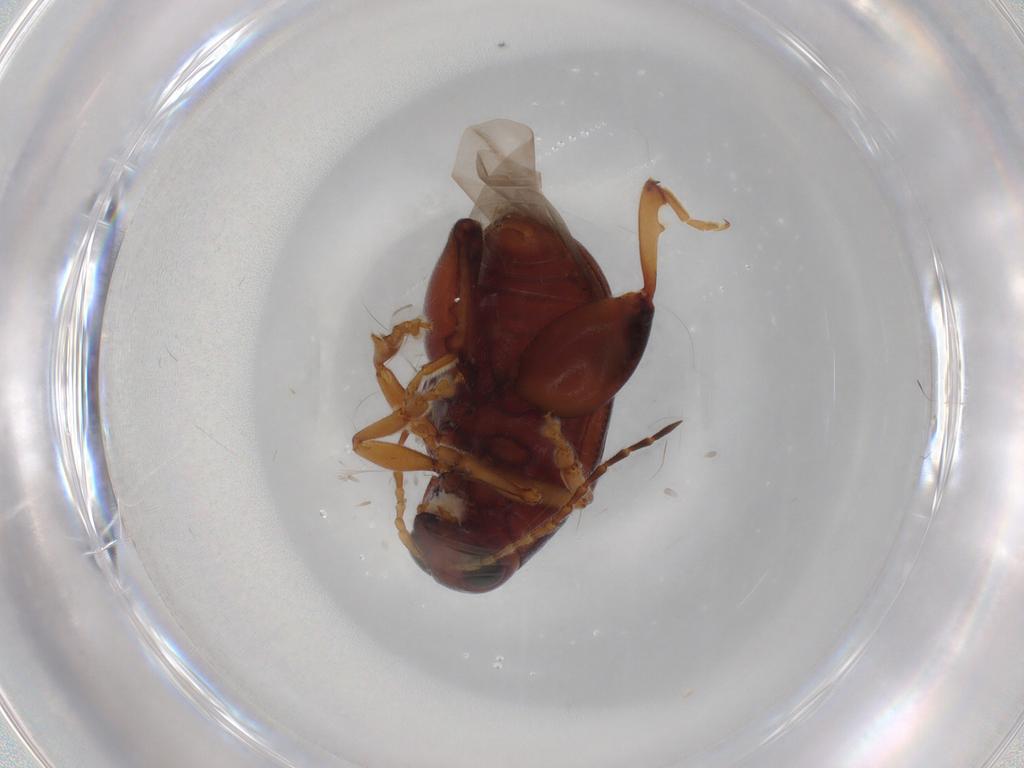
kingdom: Animalia
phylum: Arthropoda
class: Insecta
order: Coleoptera
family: Chrysomelidae
